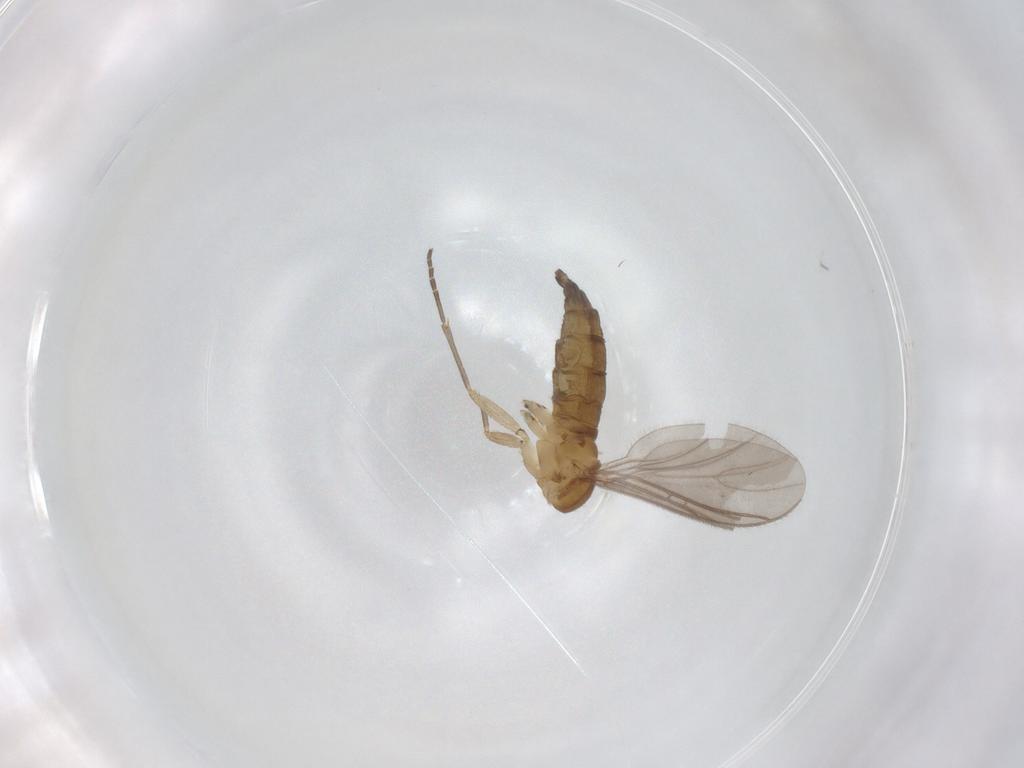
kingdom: Animalia
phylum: Arthropoda
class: Insecta
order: Diptera
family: Sciaridae
